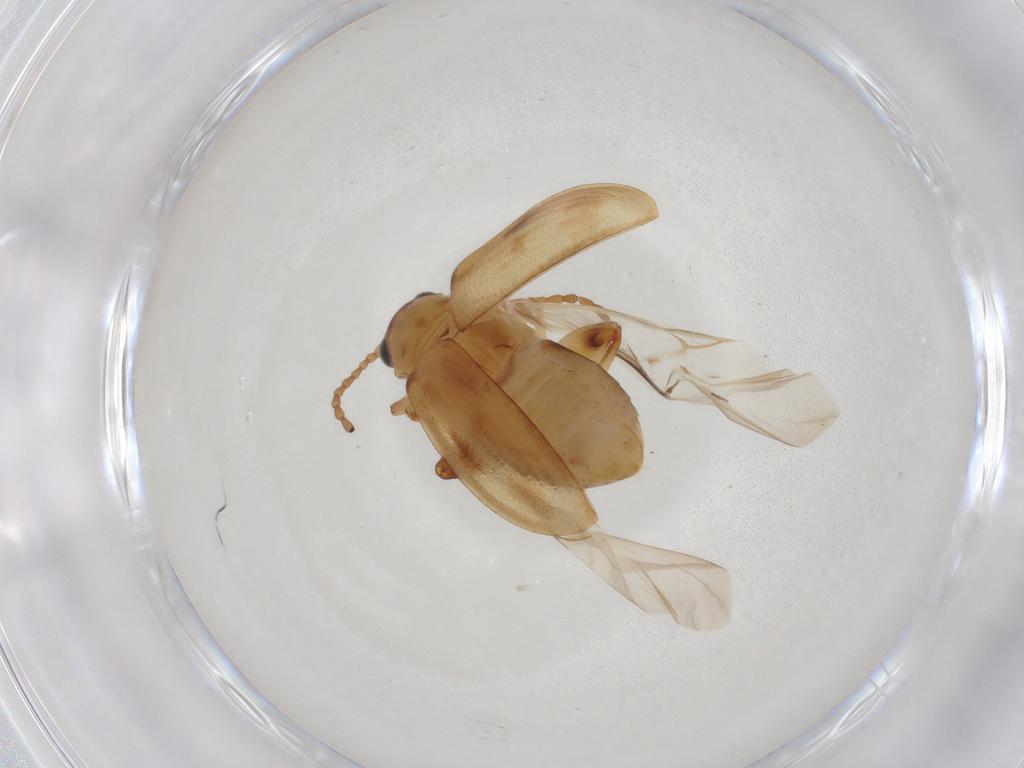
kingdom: Animalia
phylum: Arthropoda
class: Insecta
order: Coleoptera
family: Chrysomelidae
